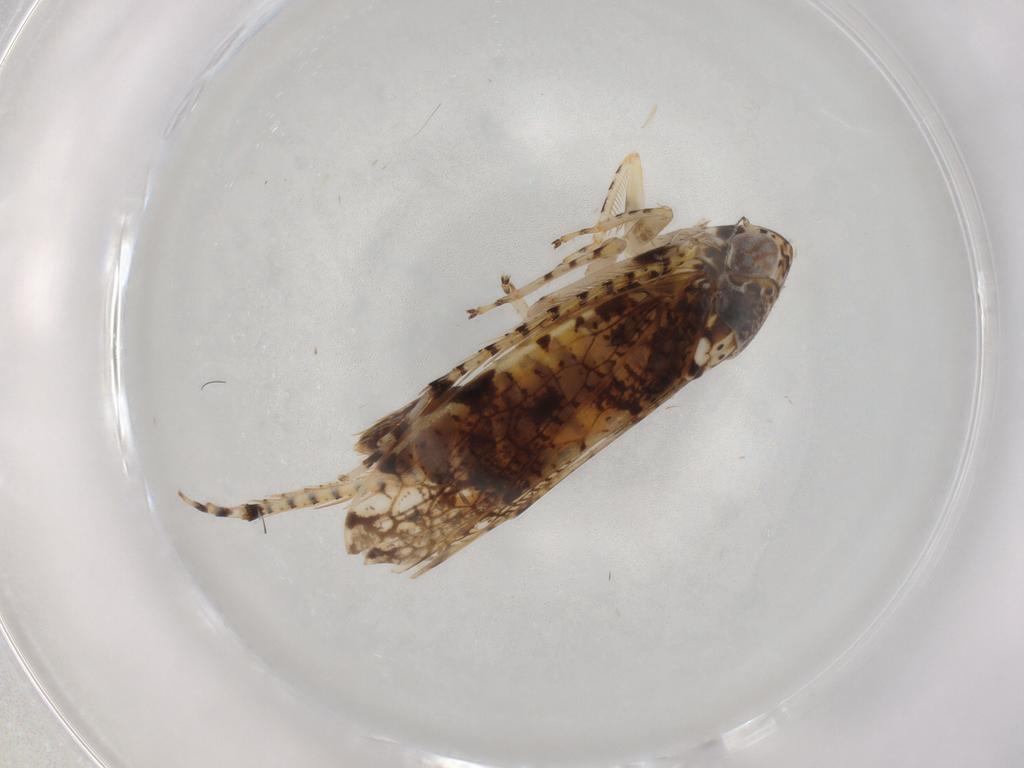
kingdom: Animalia
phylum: Arthropoda
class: Insecta
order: Hemiptera
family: Cicadellidae
